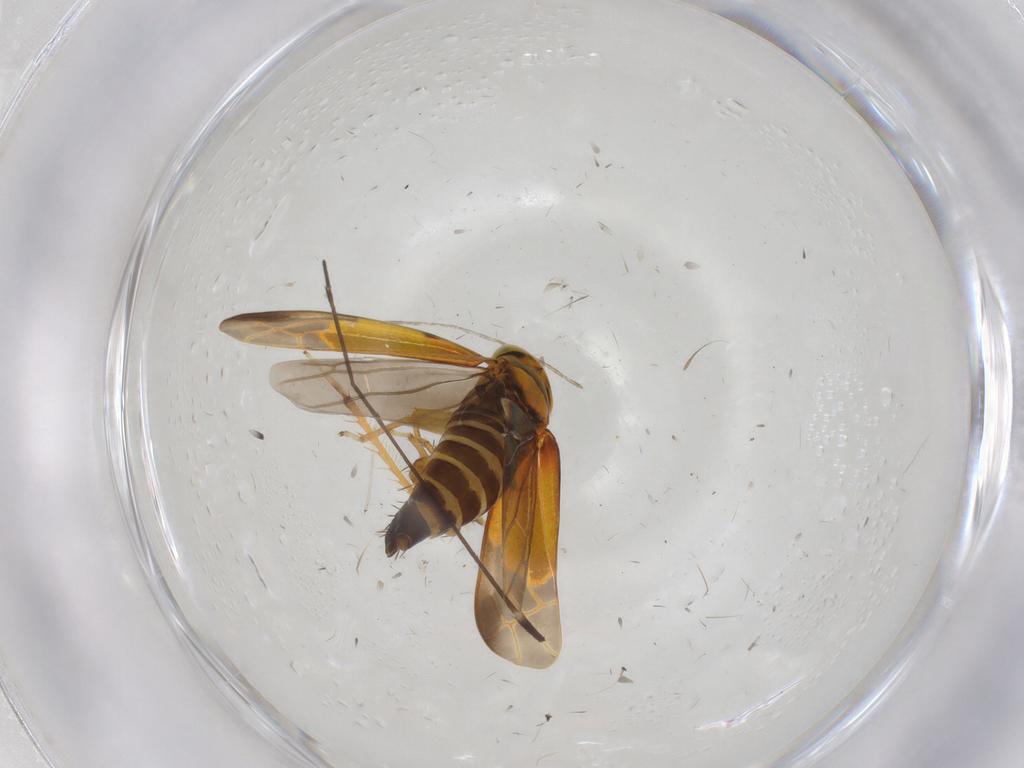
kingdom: Animalia
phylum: Arthropoda
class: Insecta
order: Hemiptera
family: Cicadellidae
